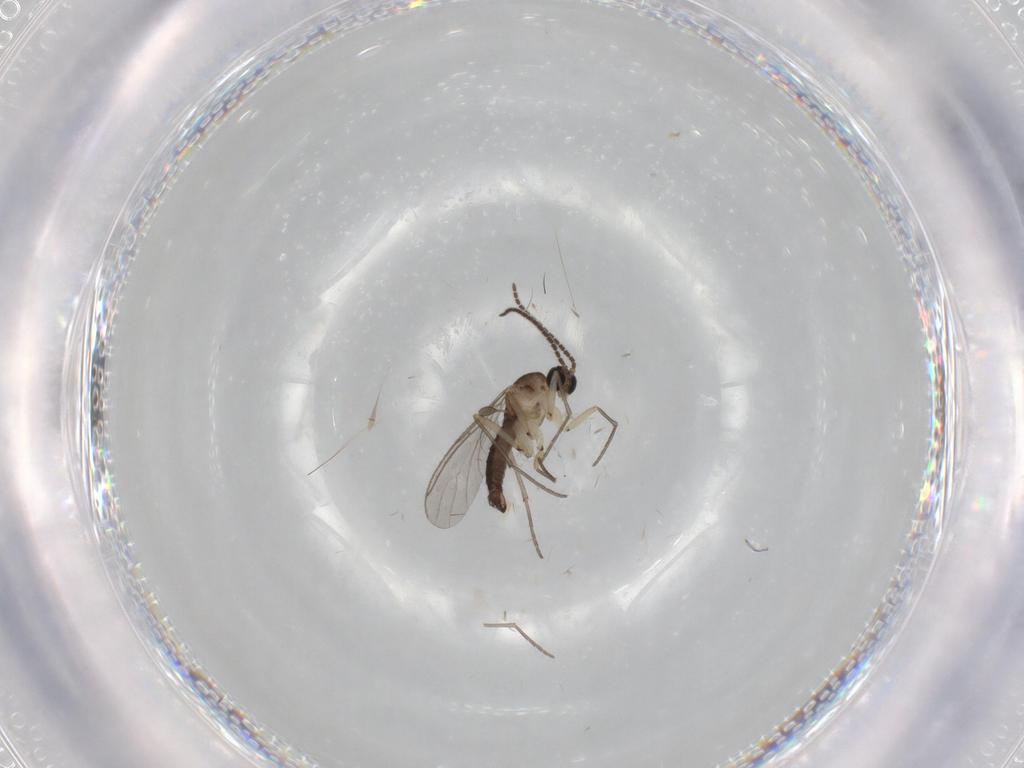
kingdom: Animalia
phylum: Arthropoda
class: Insecta
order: Diptera
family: Sciaridae
